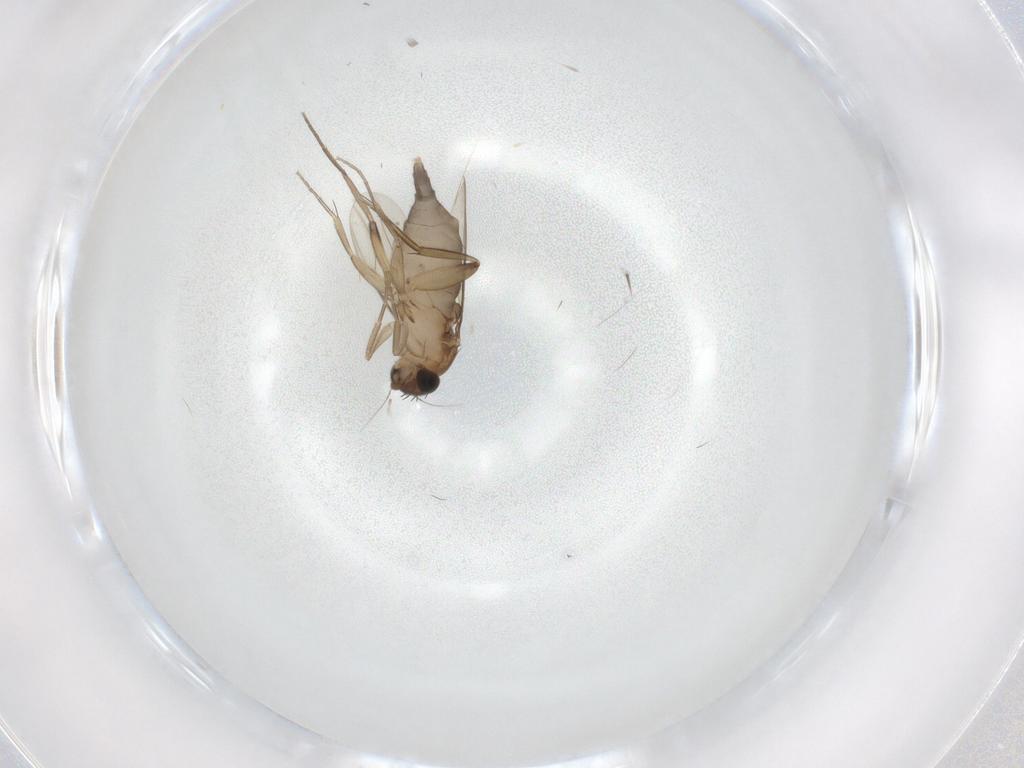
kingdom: Animalia
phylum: Arthropoda
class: Insecta
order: Diptera
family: Phoridae
